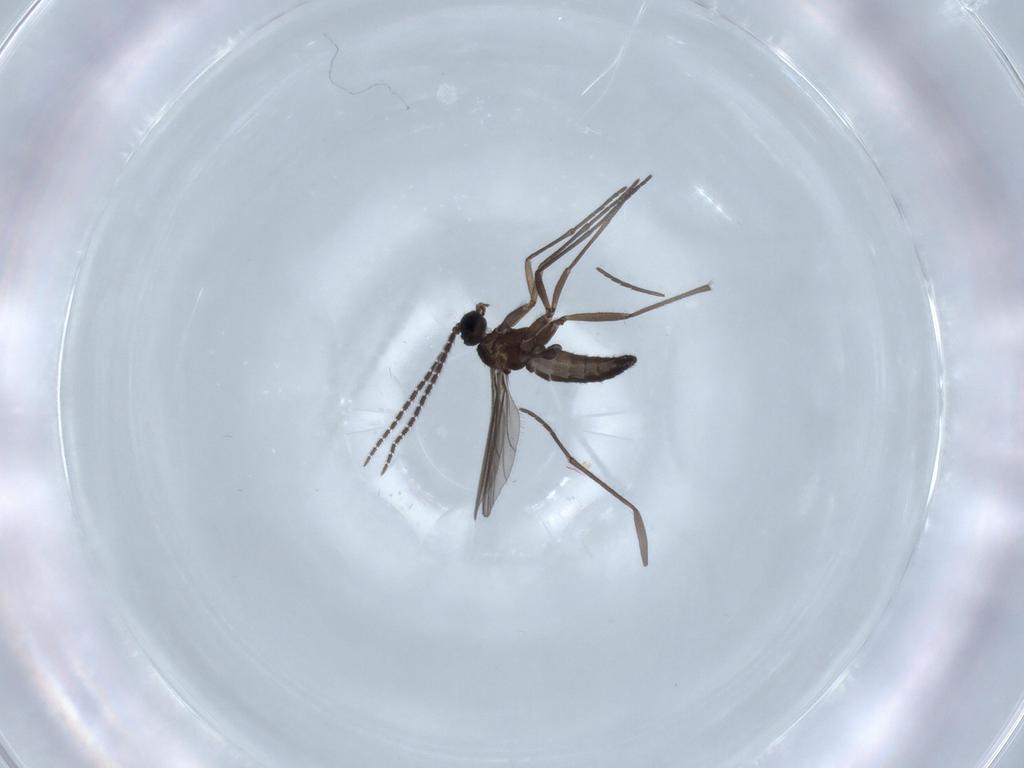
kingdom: Animalia
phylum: Arthropoda
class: Insecta
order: Diptera
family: Sciaridae
